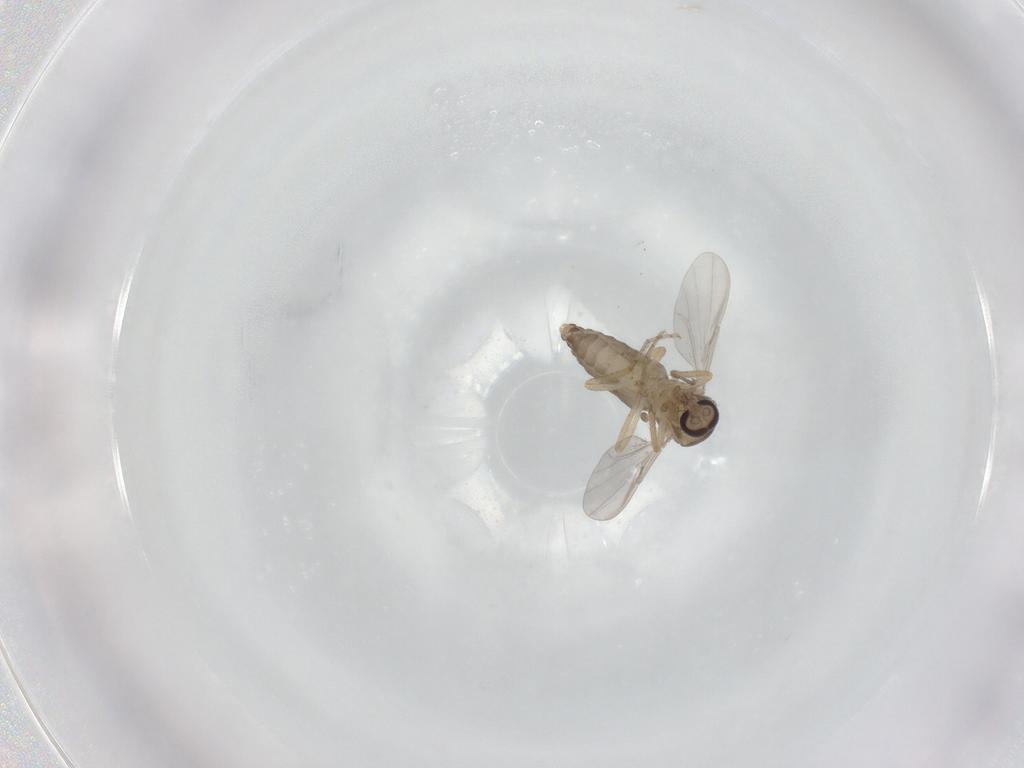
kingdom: Animalia
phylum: Arthropoda
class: Insecta
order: Diptera
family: Ceratopogonidae
